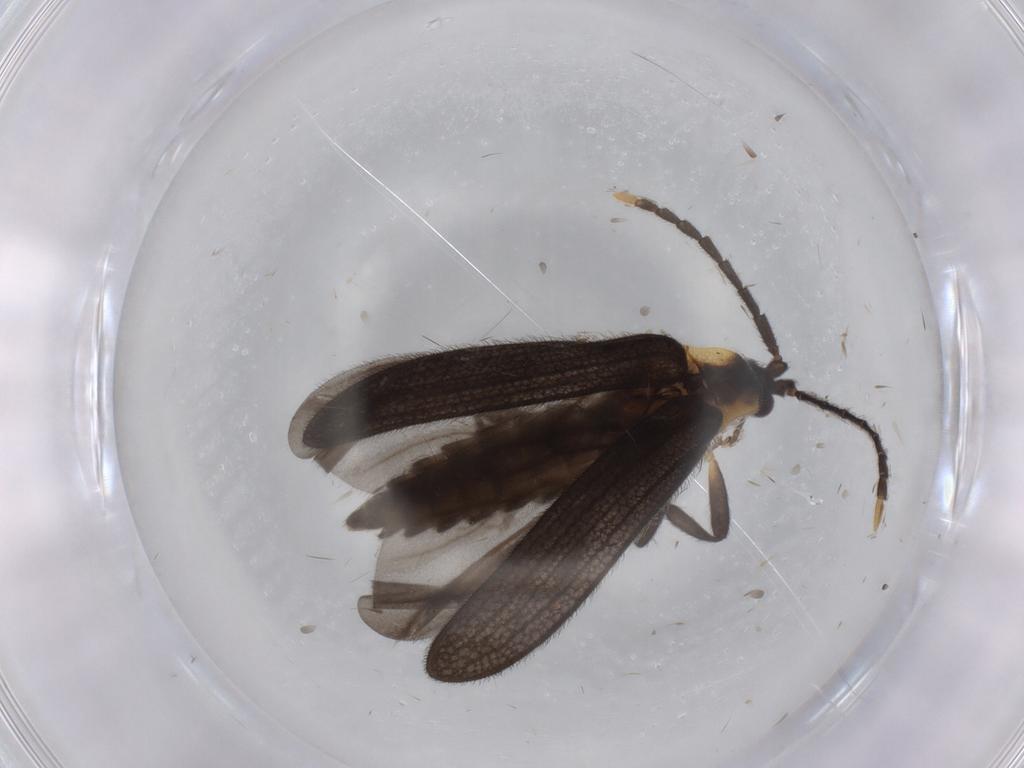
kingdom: Animalia
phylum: Arthropoda
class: Insecta
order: Coleoptera
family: Lycidae
